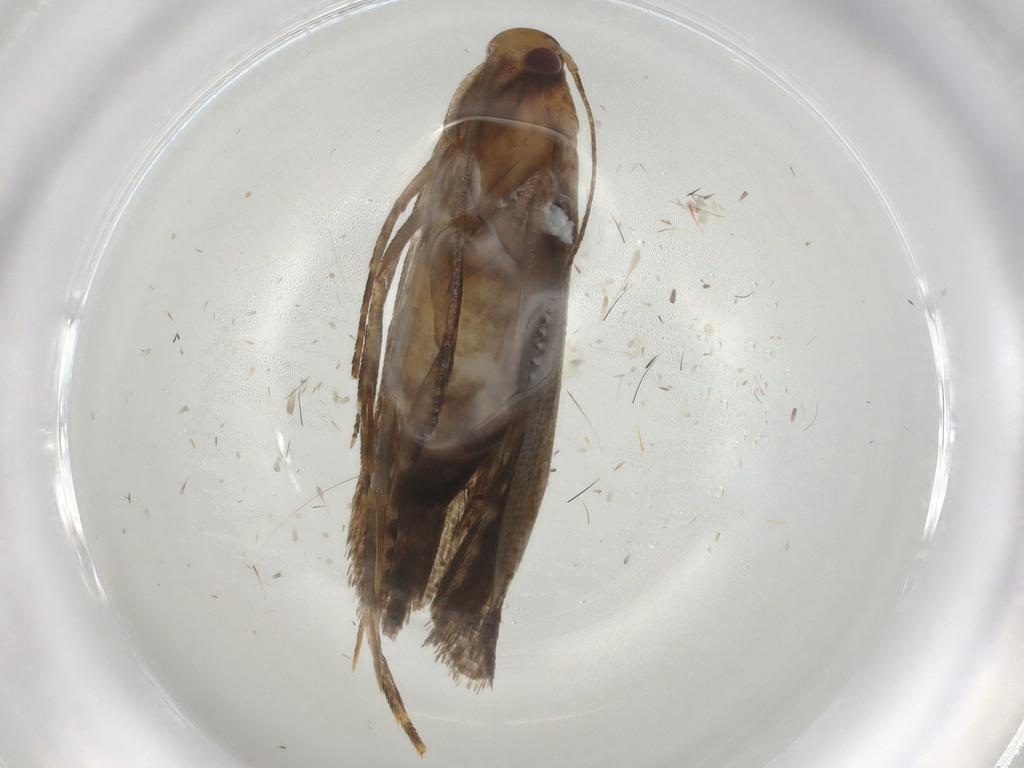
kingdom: Animalia
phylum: Arthropoda
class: Insecta
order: Lepidoptera
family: Gelechiidae
